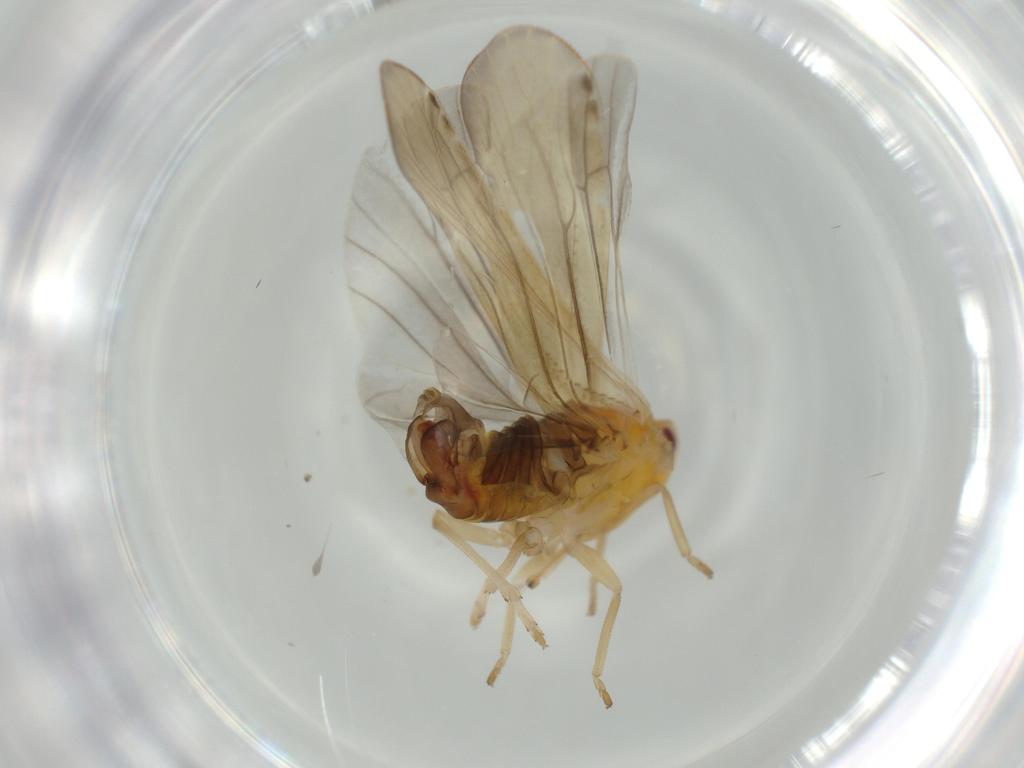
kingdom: Animalia
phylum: Arthropoda
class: Insecta
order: Hemiptera
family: Derbidae
